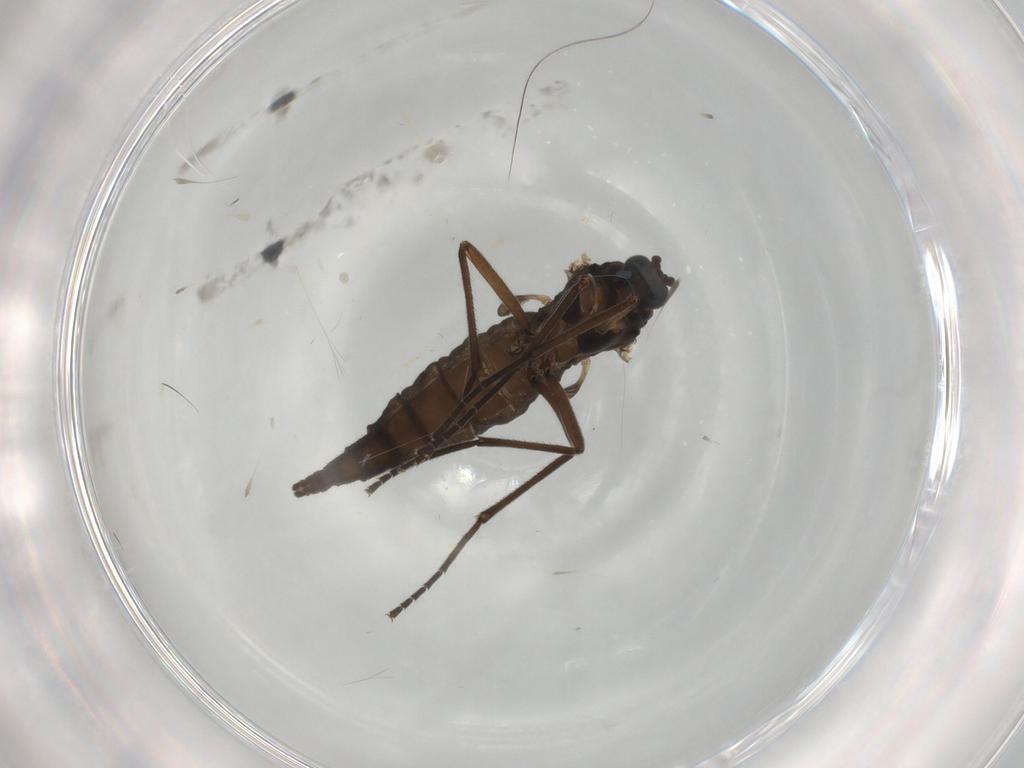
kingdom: Animalia
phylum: Arthropoda
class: Insecta
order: Diptera
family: Sciaridae
